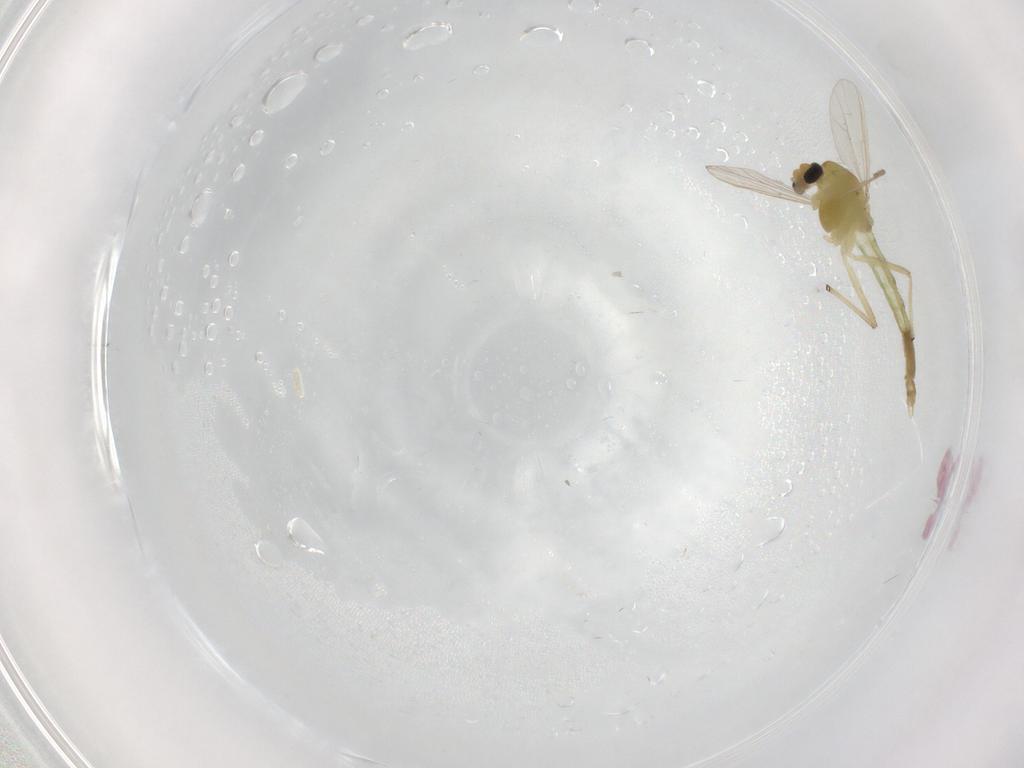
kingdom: Animalia
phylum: Arthropoda
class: Insecta
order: Diptera
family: Chironomidae
